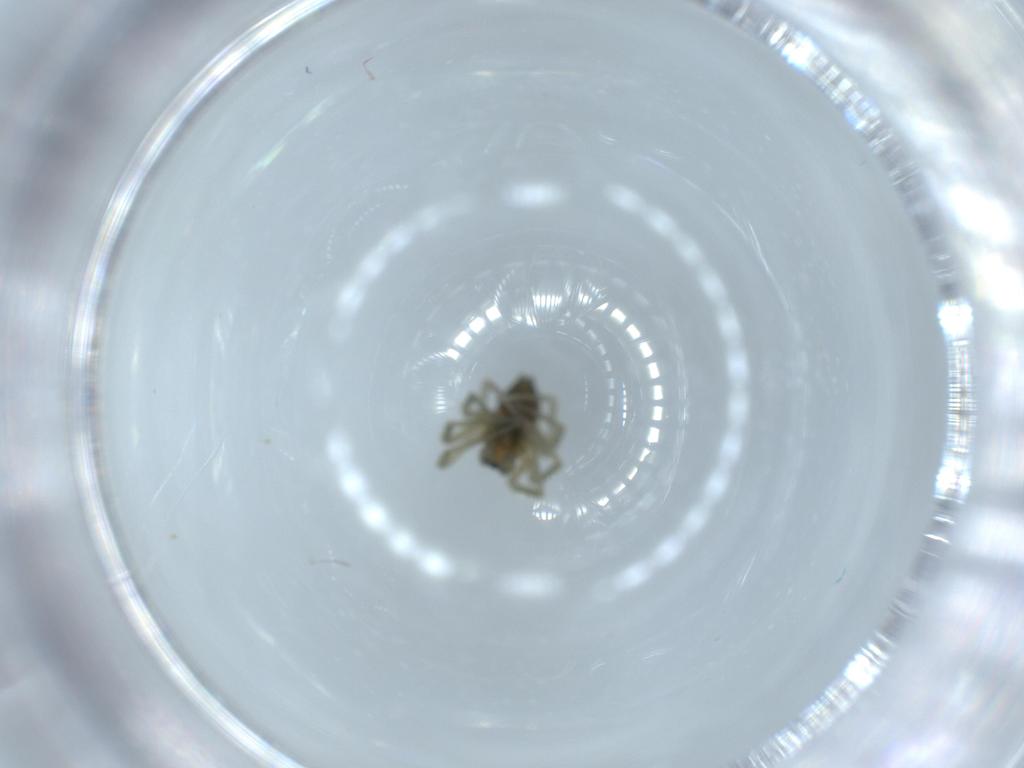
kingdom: Animalia
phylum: Arthropoda
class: Arachnida
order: Araneae
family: Linyphiidae
